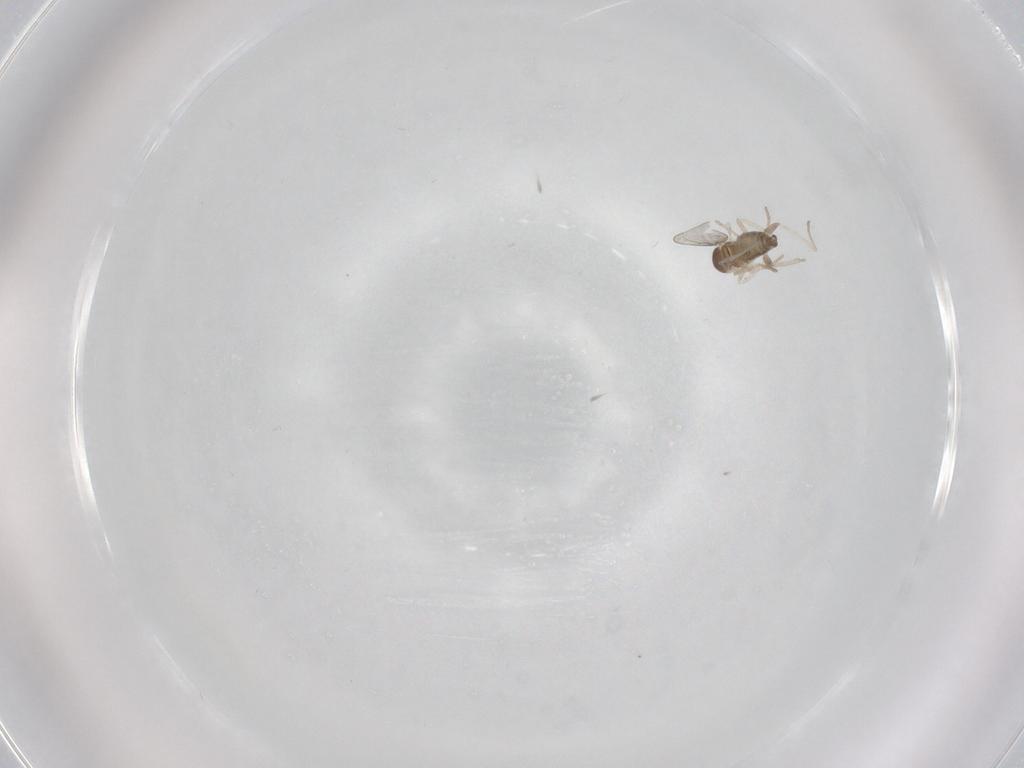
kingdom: Animalia
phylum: Arthropoda
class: Insecta
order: Diptera
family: Cecidomyiidae
